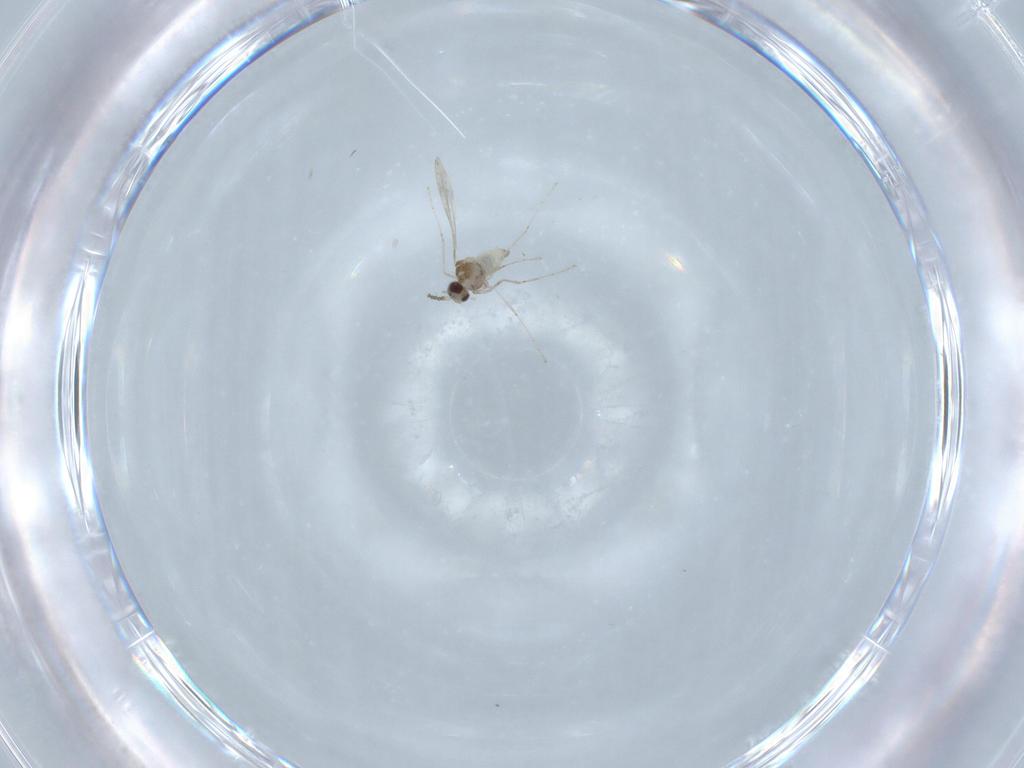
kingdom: Animalia
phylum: Arthropoda
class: Insecta
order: Diptera
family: Cecidomyiidae
